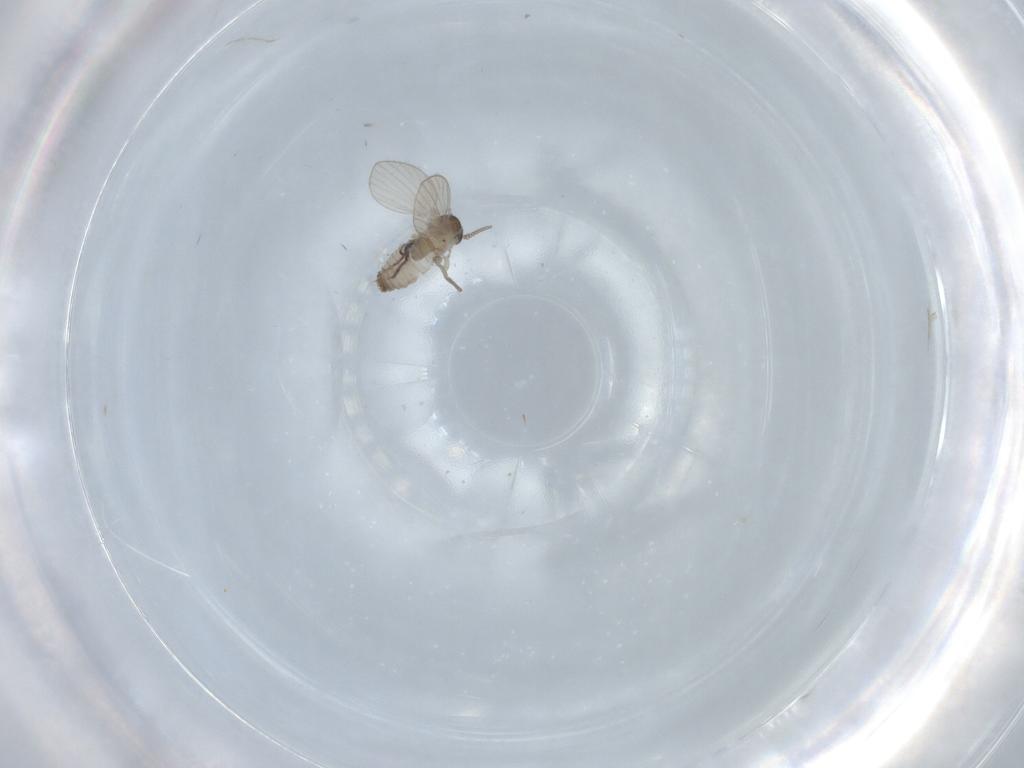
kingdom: Animalia
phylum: Arthropoda
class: Insecta
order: Diptera
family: Psychodidae
